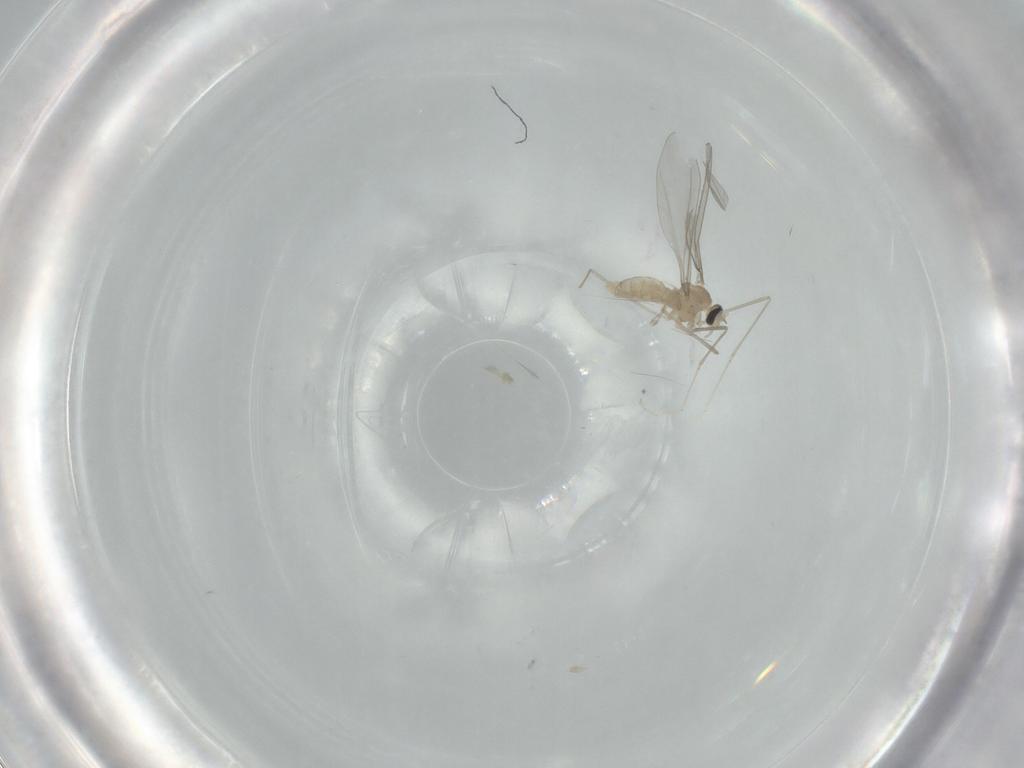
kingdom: Animalia
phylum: Arthropoda
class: Insecta
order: Diptera
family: Cecidomyiidae
